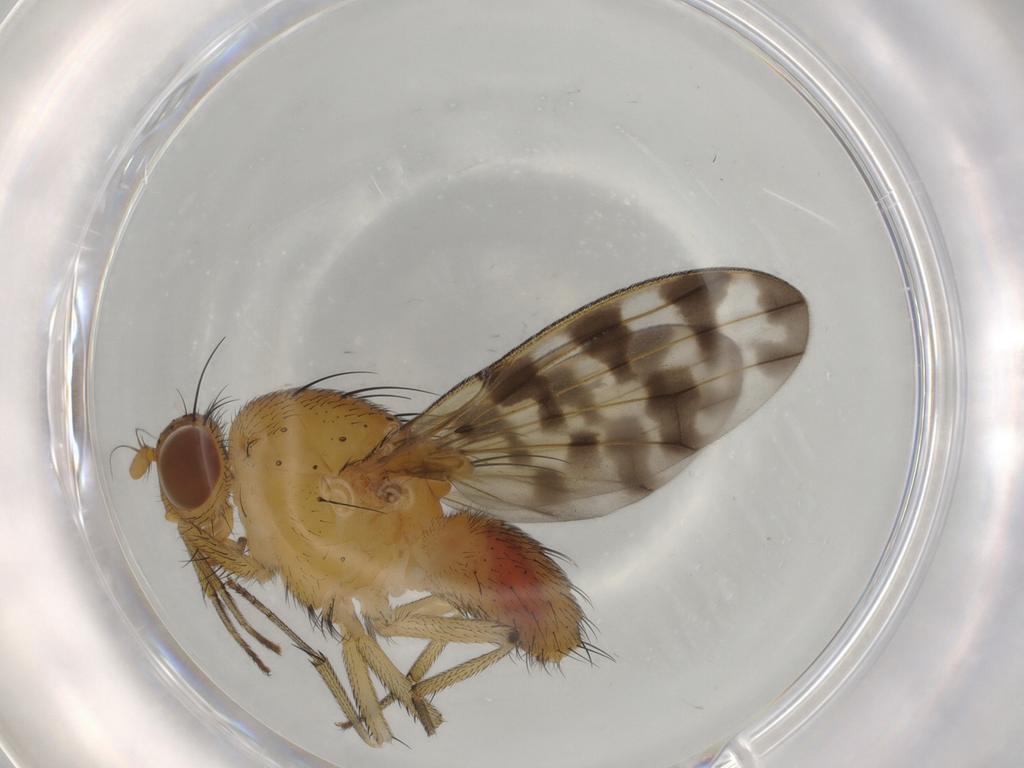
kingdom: Animalia
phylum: Arthropoda
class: Insecta
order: Diptera
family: Cecidomyiidae
